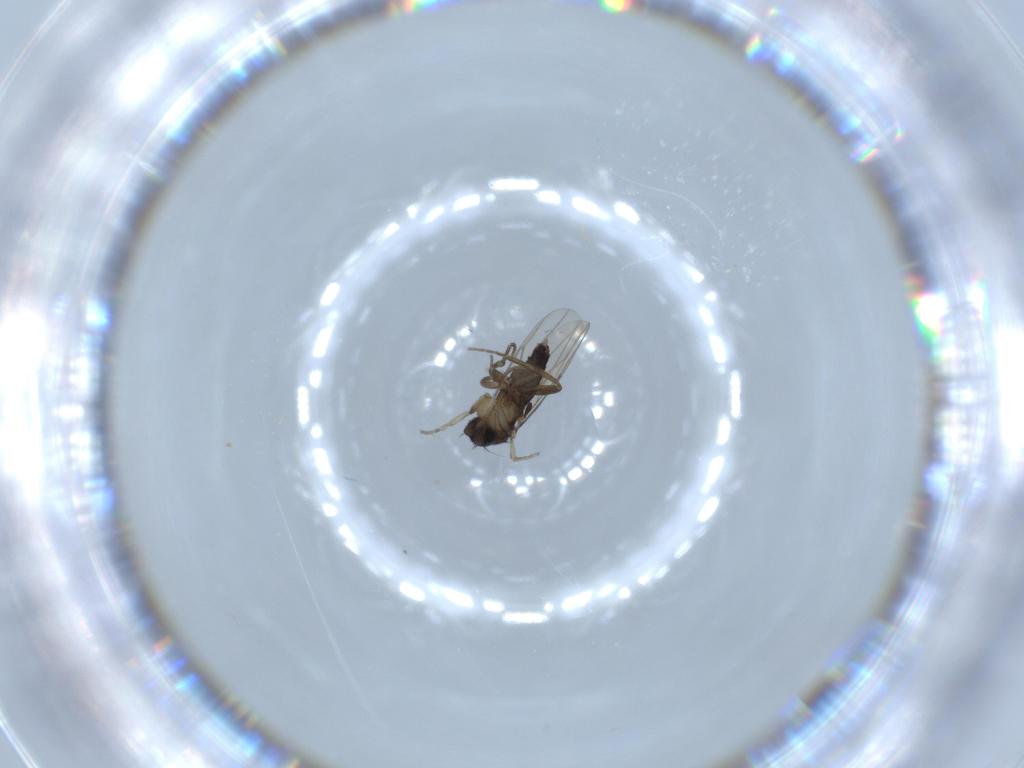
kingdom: Animalia
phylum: Arthropoda
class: Insecta
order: Diptera
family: Phoridae
